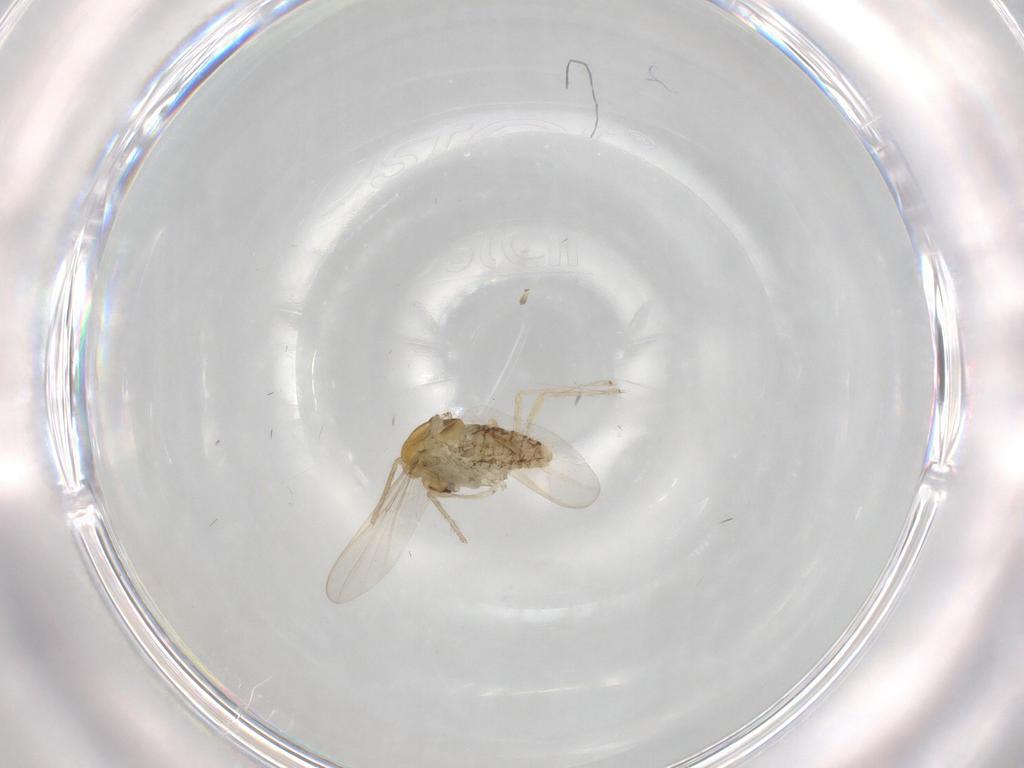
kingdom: Animalia
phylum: Arthropoda
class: Insecta
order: Diptera
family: Chironomidae
